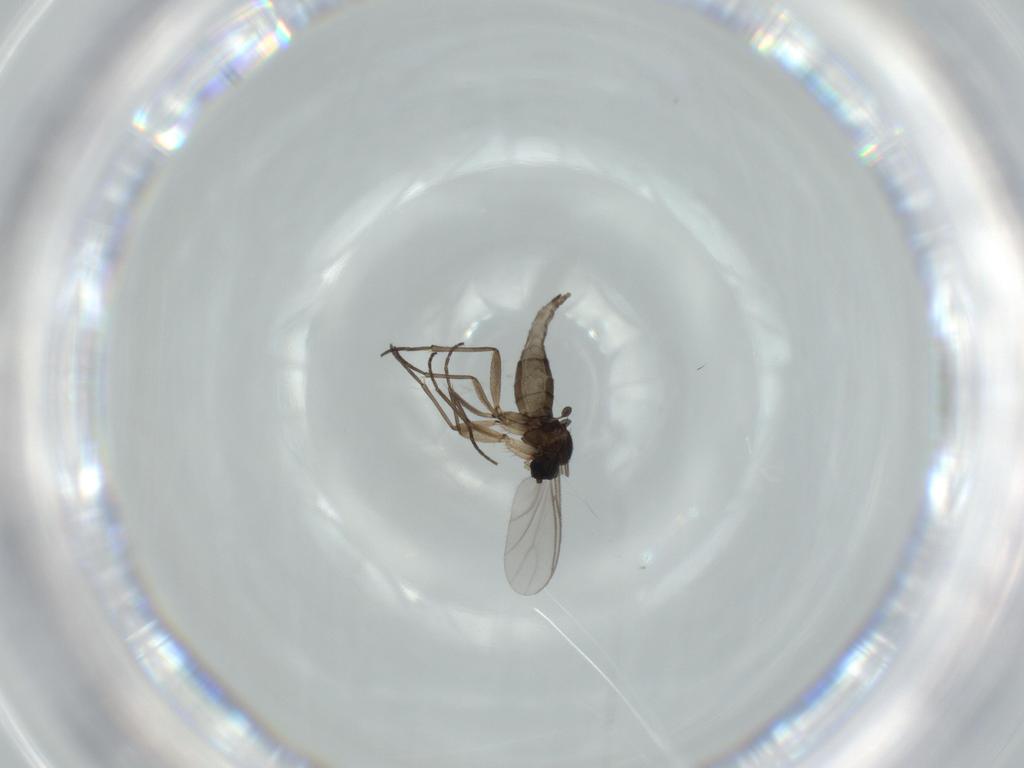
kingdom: Animalia
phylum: Arthropoda
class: Insecta
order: Diptera
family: Sciaridae
